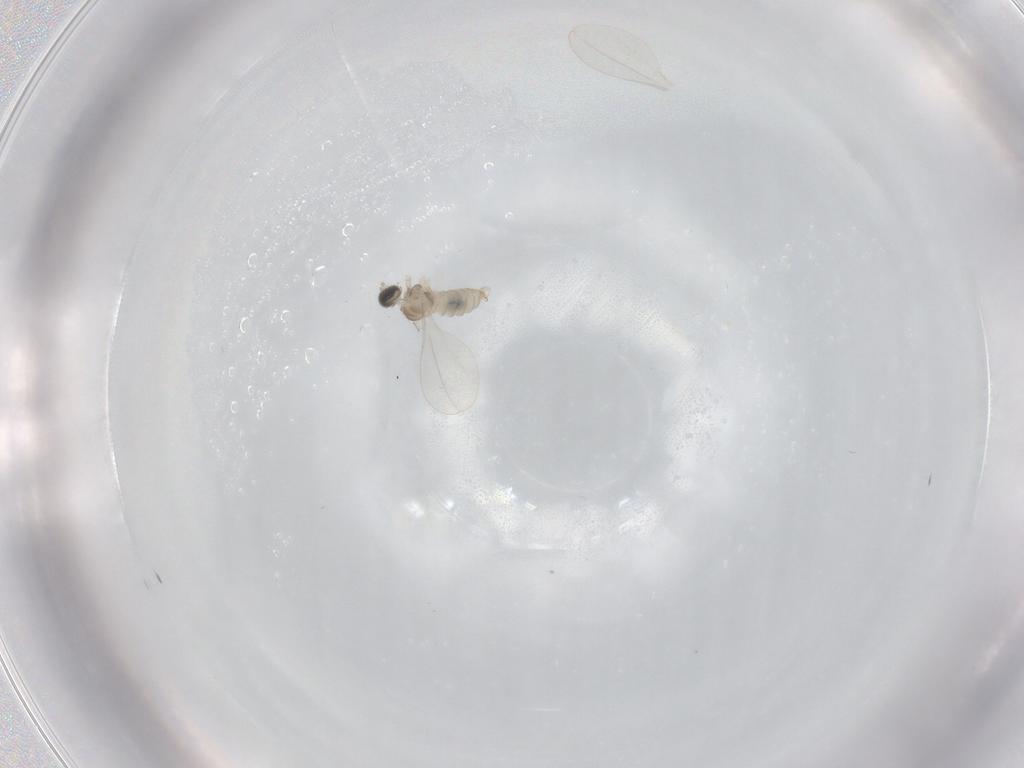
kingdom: Animalia
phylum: Arthropoda
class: Insecta
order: Diptera
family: Cecidomyiidae
